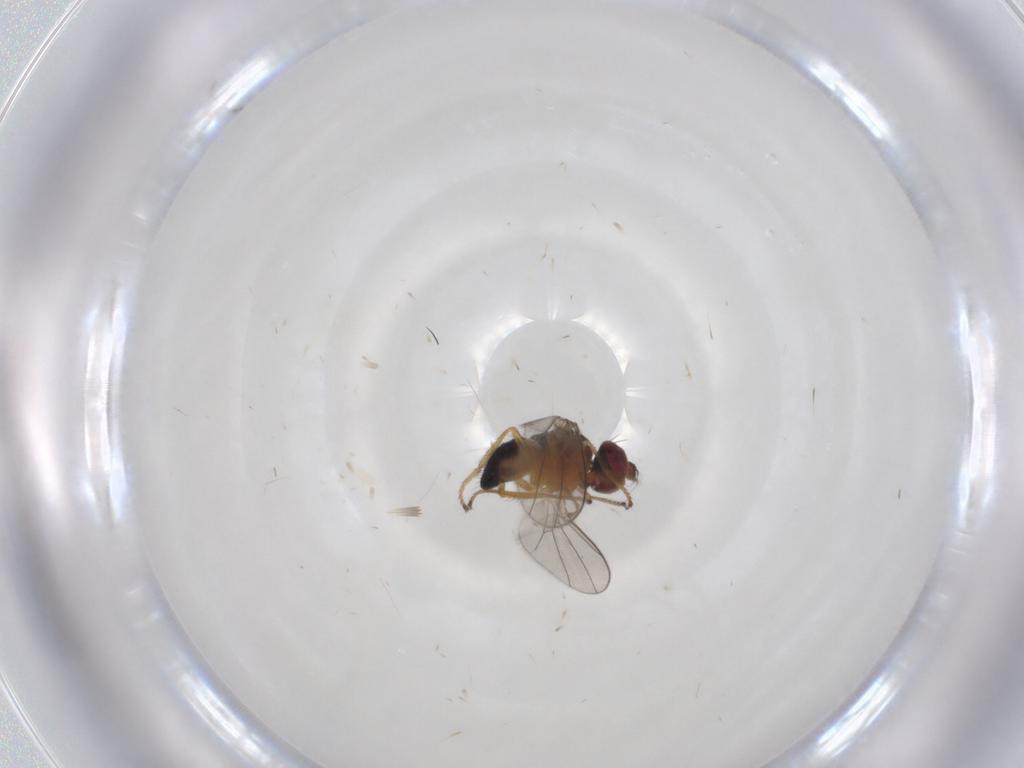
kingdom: Animalia
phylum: Arthropoda
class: Insecta
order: Diptera
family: Ephydridae
